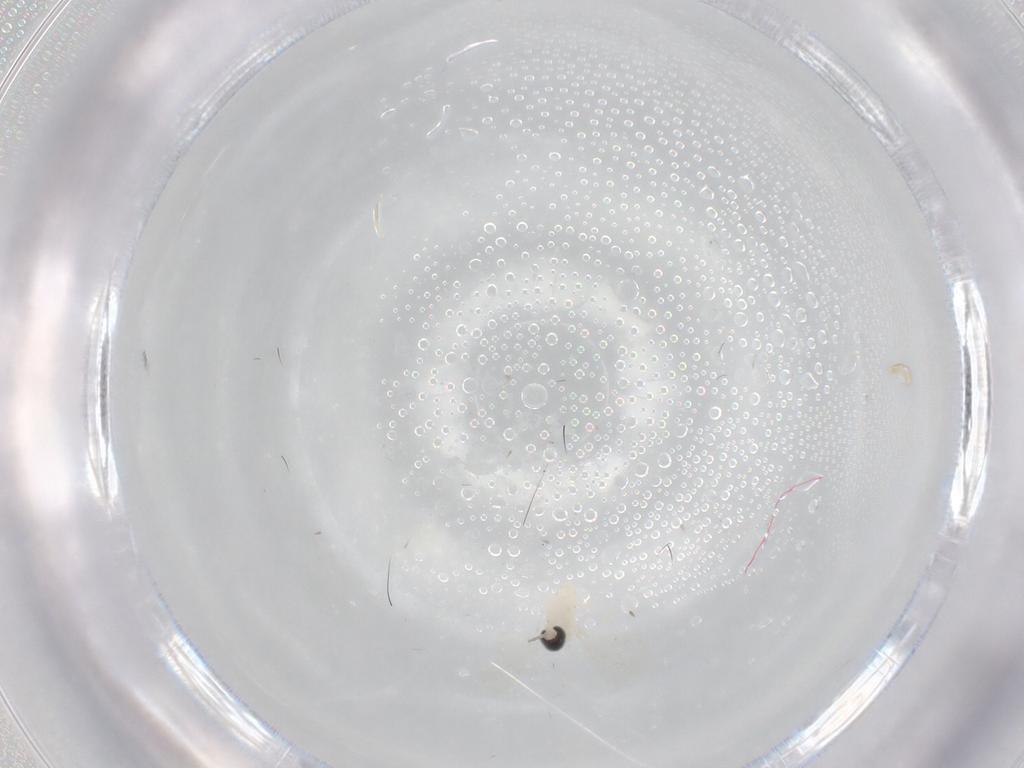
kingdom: Animalia
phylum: Arthropoda
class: Insecta
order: Diptera
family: Cecidomyiidae
